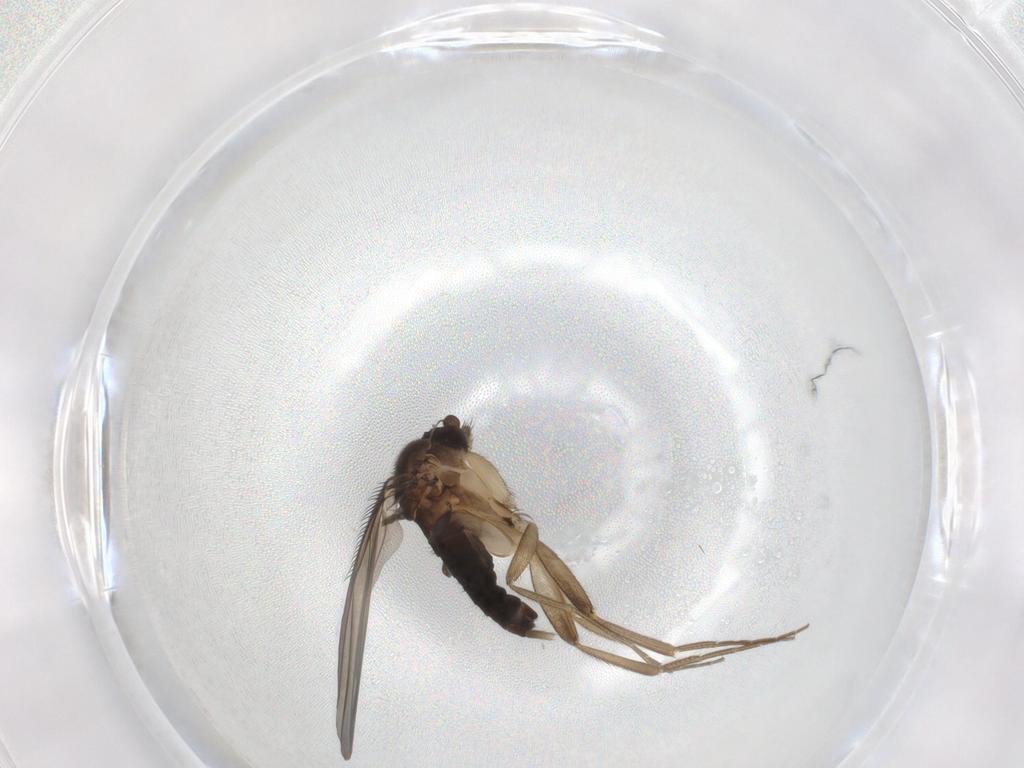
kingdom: Animalia
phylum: Arthropoda
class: Insecta
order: Diptera
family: Phoridae
